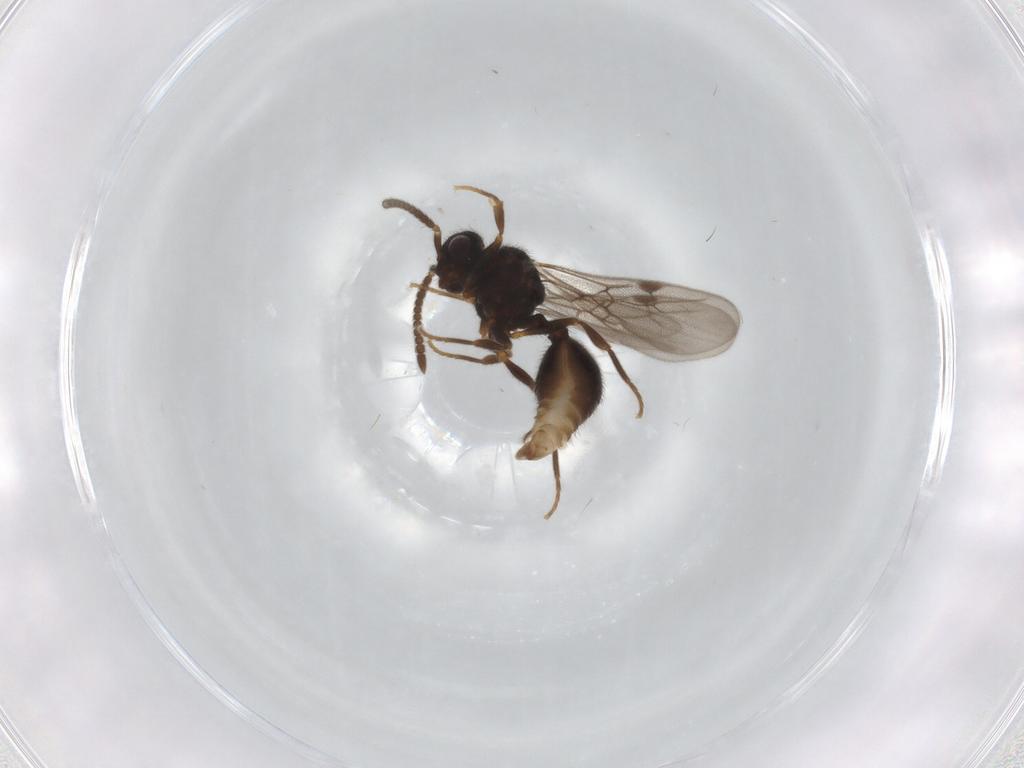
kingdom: Animalia
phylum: Arthropoda
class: Insecta
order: Hymenoptera
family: Formicidae
